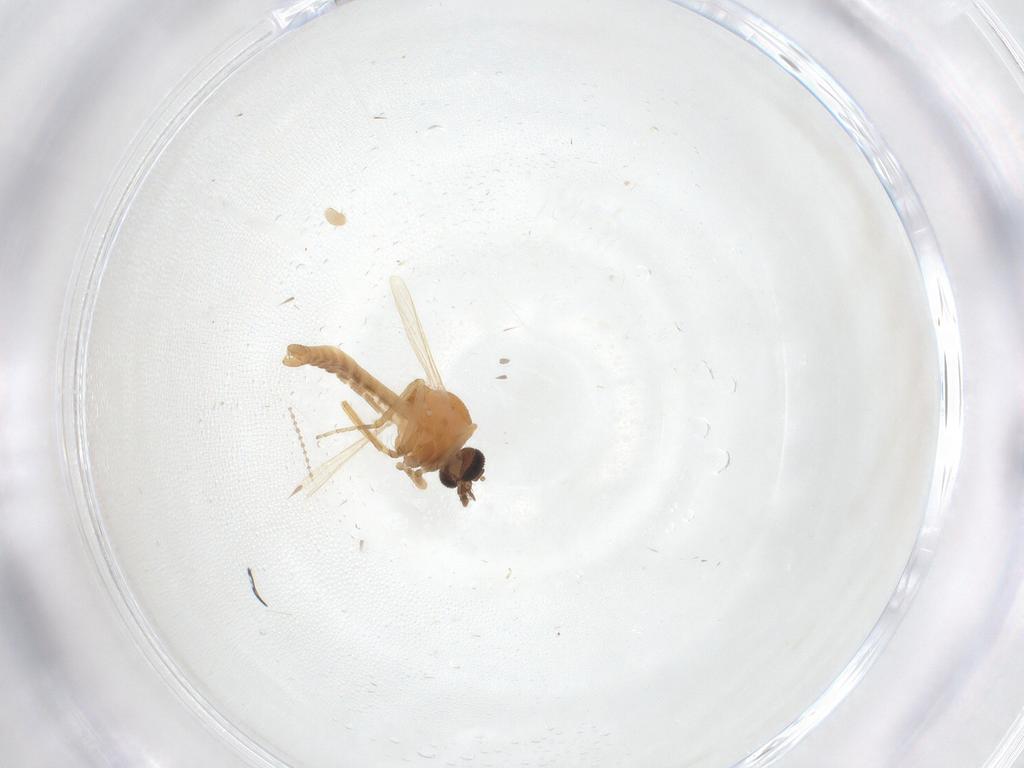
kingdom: Animalia
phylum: Arthropoda
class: Insecta
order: Diptera
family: Ceratopogonidae
